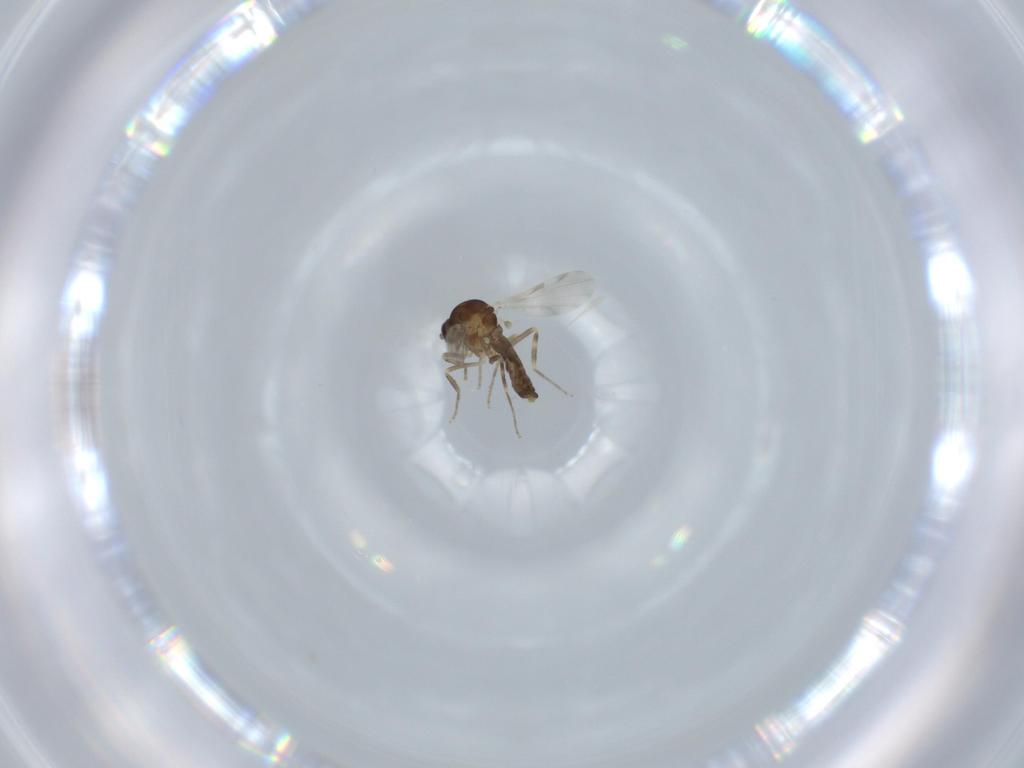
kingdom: Animalia
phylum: Arthropoda
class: Insecta
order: Diptera
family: Ceratopogonidae
